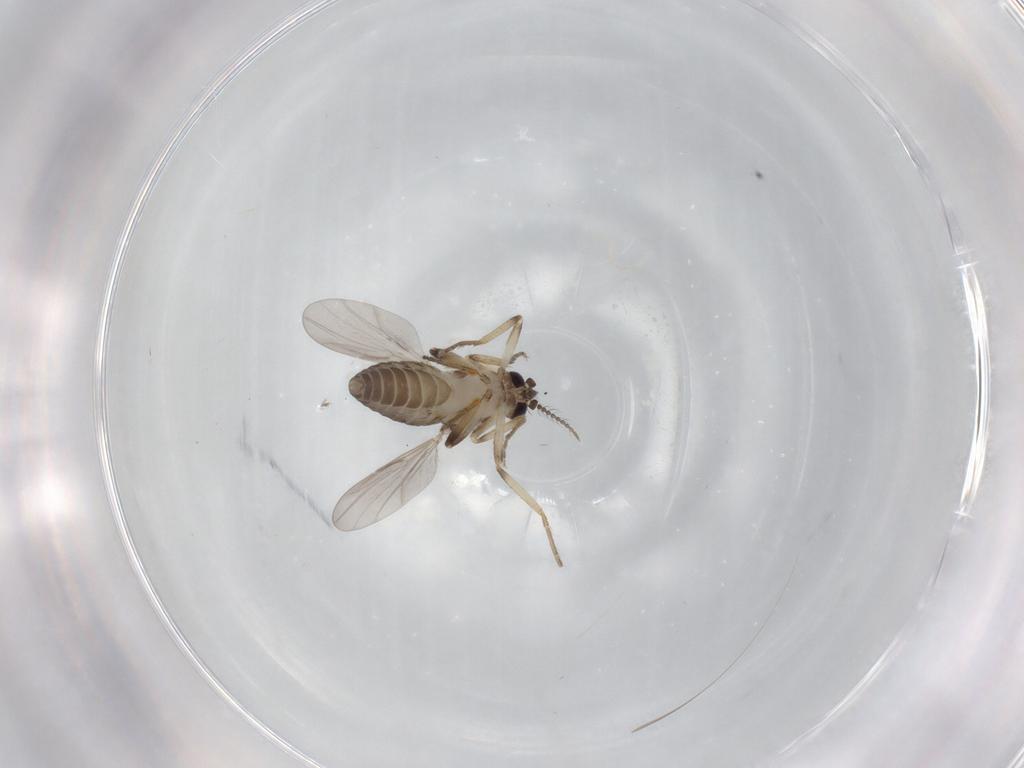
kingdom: Animalia
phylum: Arthropoda
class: Insecta
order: Diptera
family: Ceratopogonidae
